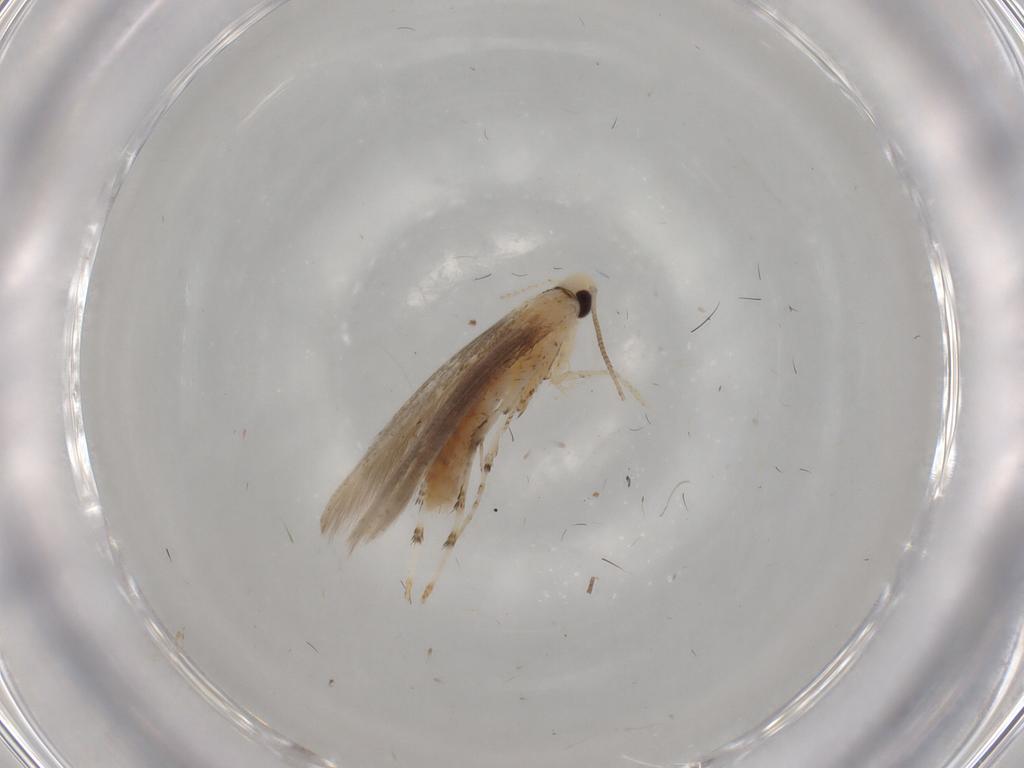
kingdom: Animalia
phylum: Arthropoda
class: Insecta
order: Lepidoptera
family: Gracillariidae
